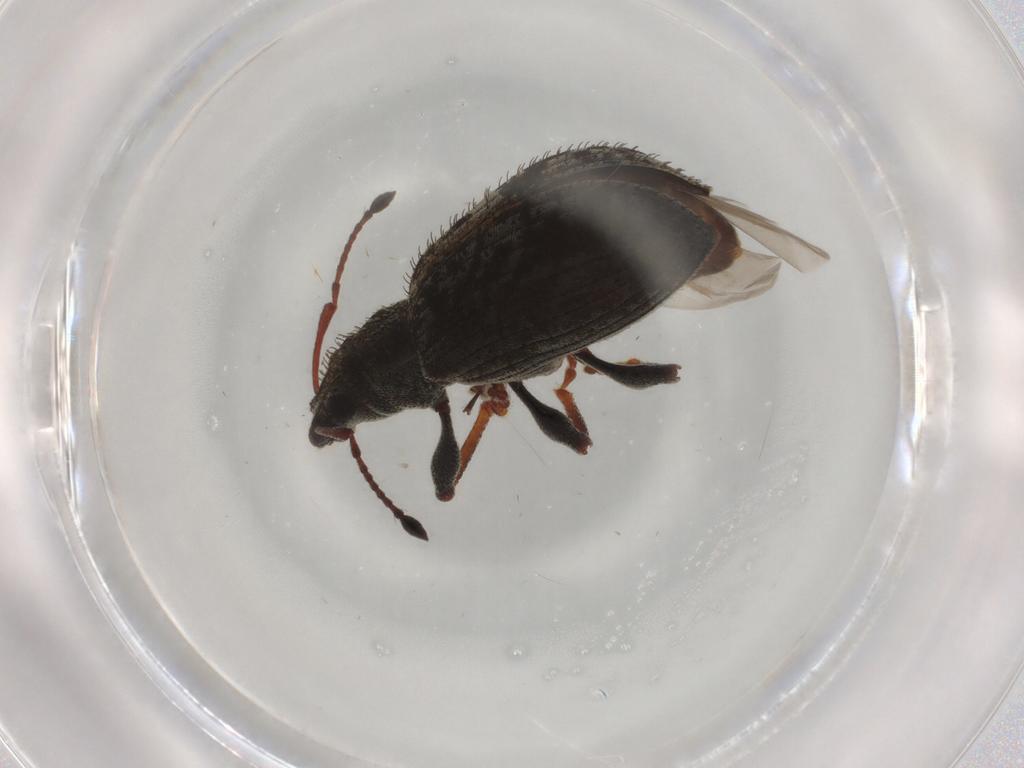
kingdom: Animalia
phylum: Arthropoda
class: Insecta
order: Coleoptera
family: Curculionidae
